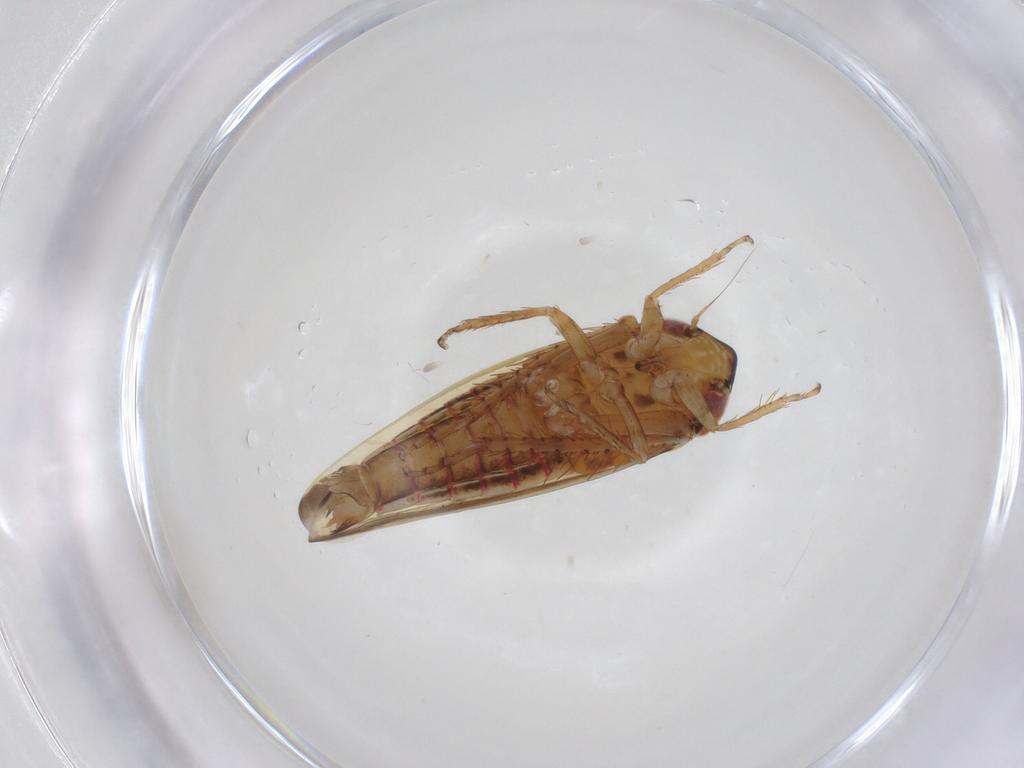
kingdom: Animalia
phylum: Arthropoda
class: Insecta
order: Hemiptera
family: Cicadellidae
